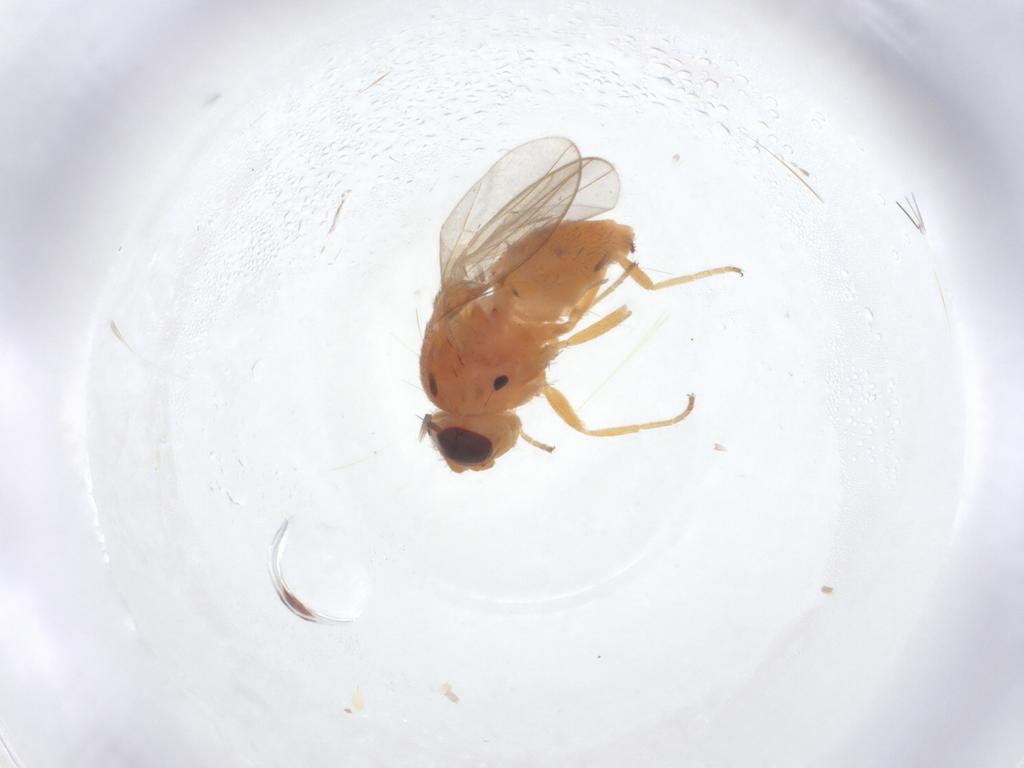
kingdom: Animalia
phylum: Arthropoda
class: Insecta
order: Diptera
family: Chloropidae
